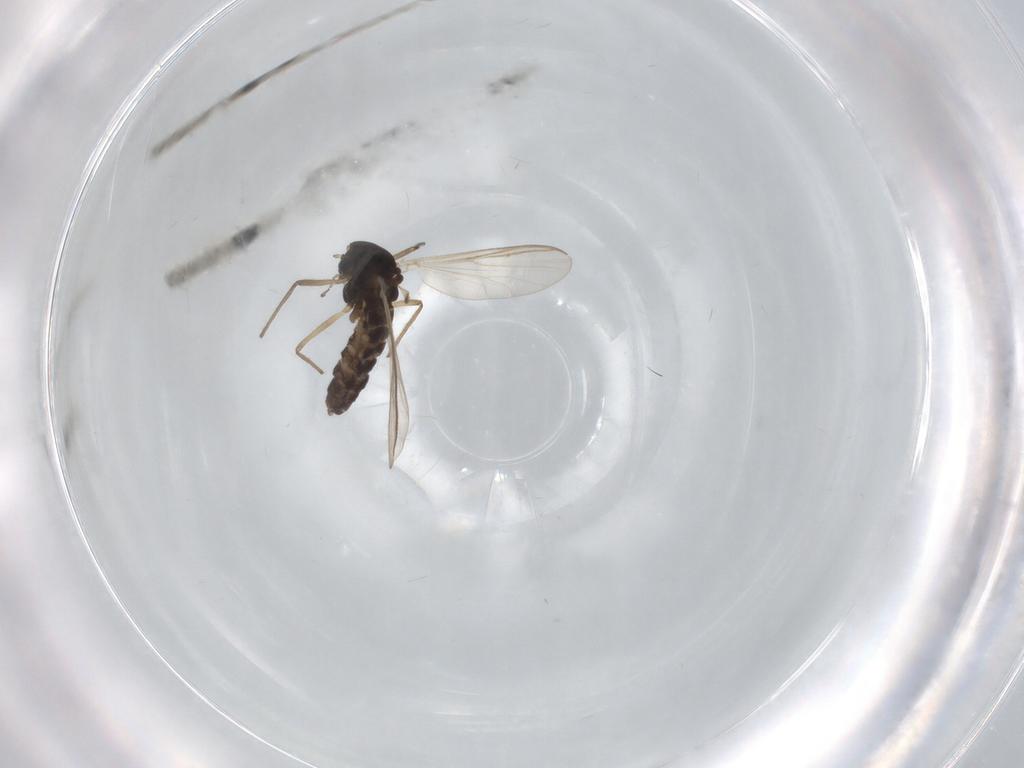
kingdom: Animalia
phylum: Arthropoda
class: Insecta
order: Diptera
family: Chironomidae
